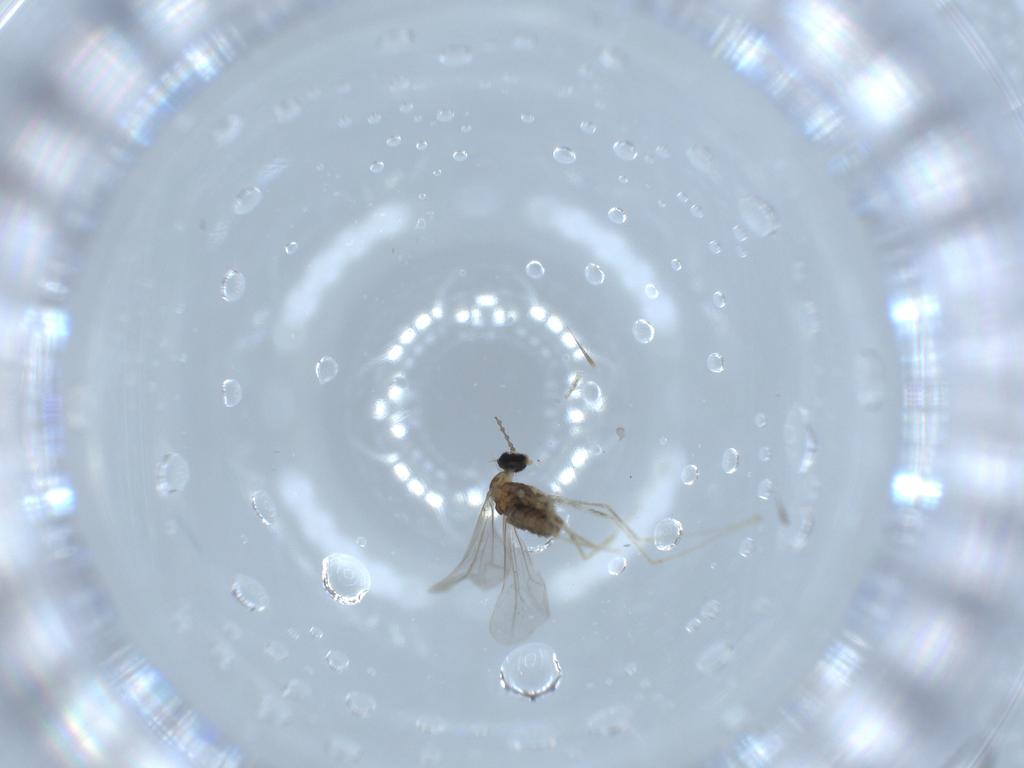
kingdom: Animalia
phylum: Arthropoda
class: Insecta
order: Diptera
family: Cecidomyiidae
